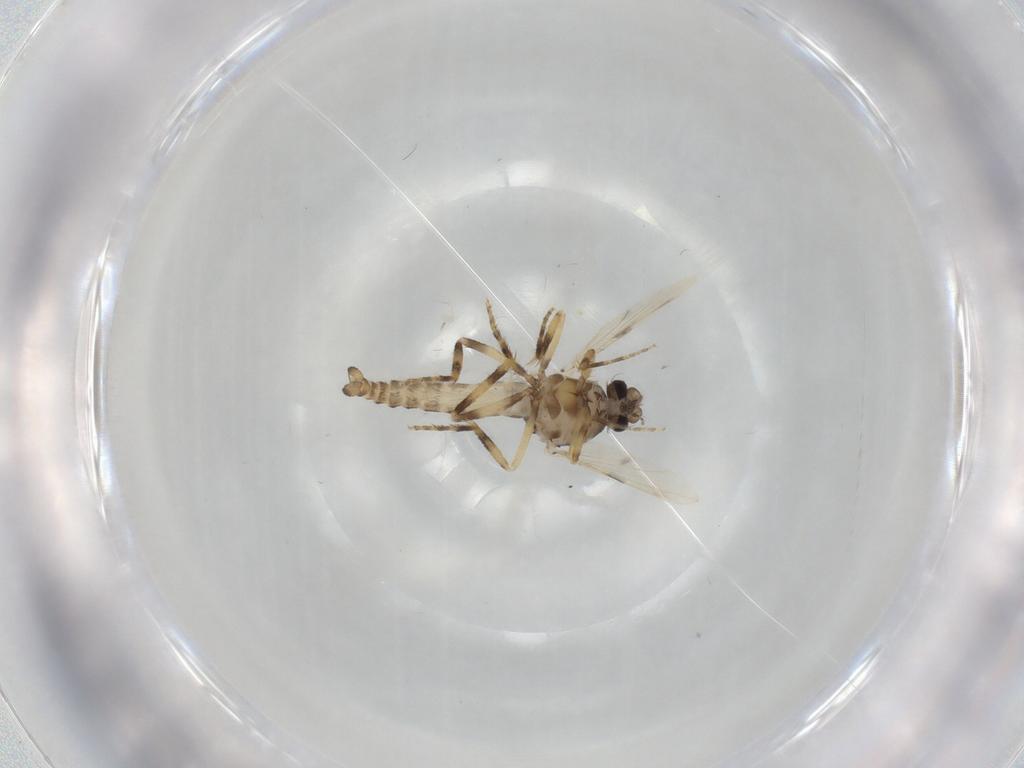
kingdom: Animalia
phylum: Arthropoda
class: Insecta
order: Diptera
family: Ceratopogonidae
